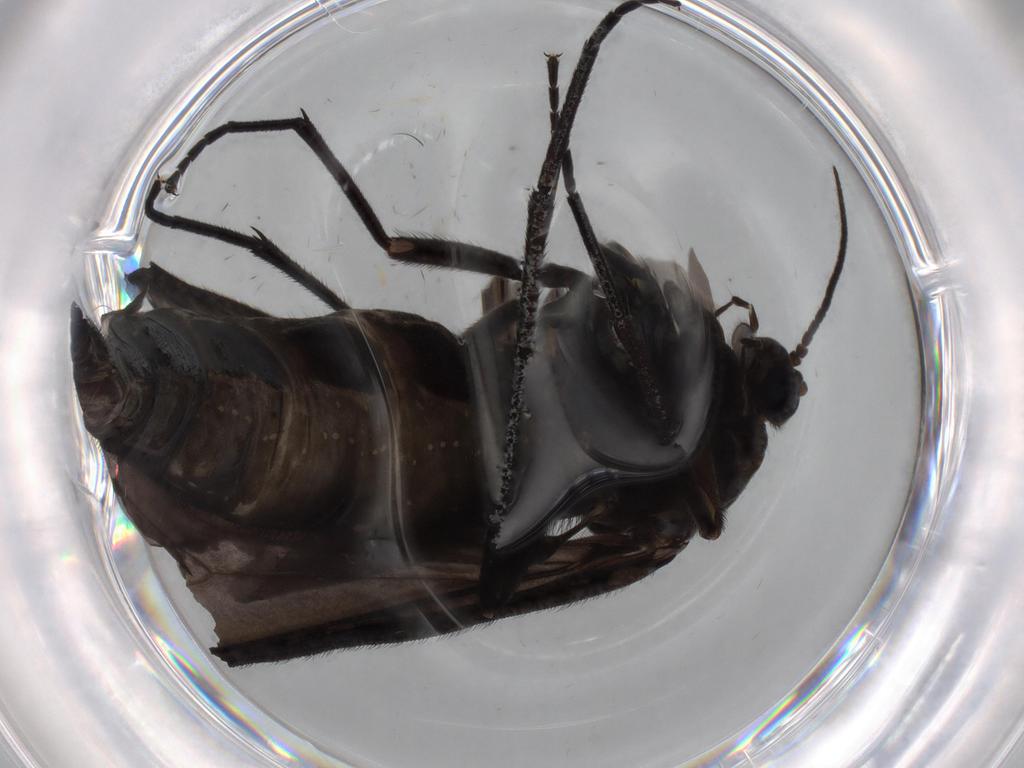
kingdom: Animalia
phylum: Arthropoda
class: Insecta
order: Diptera
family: Sciaridae
